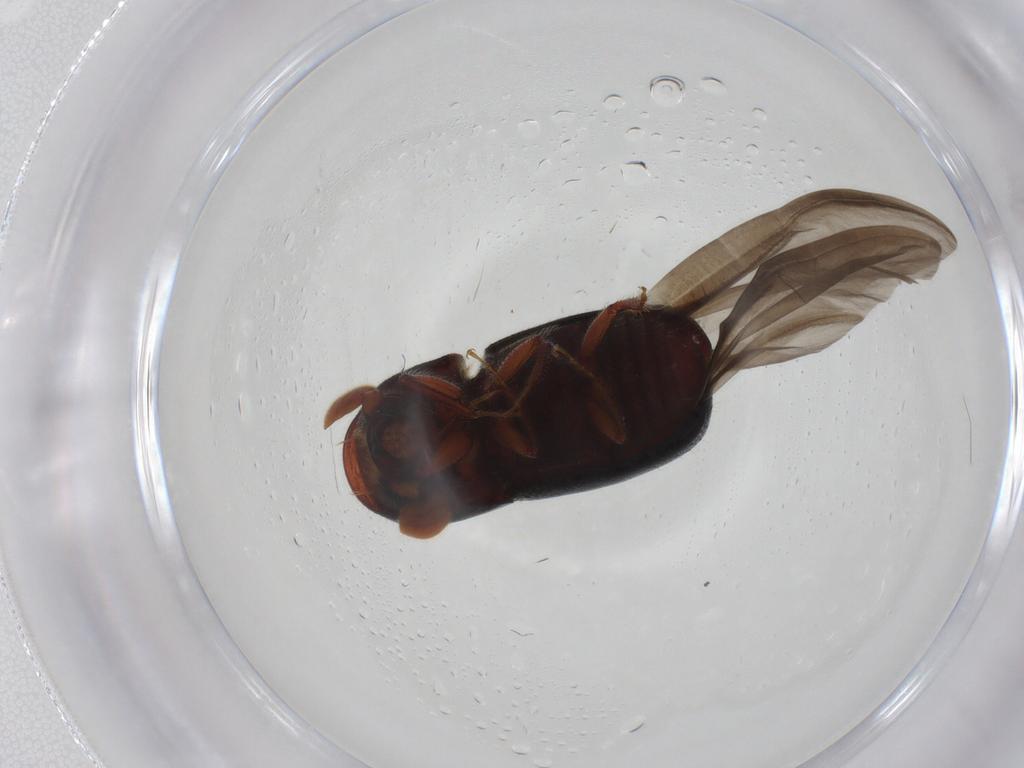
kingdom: Animalia
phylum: Arthropoda
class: Insecta
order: Coleoptera
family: Curculionidae
